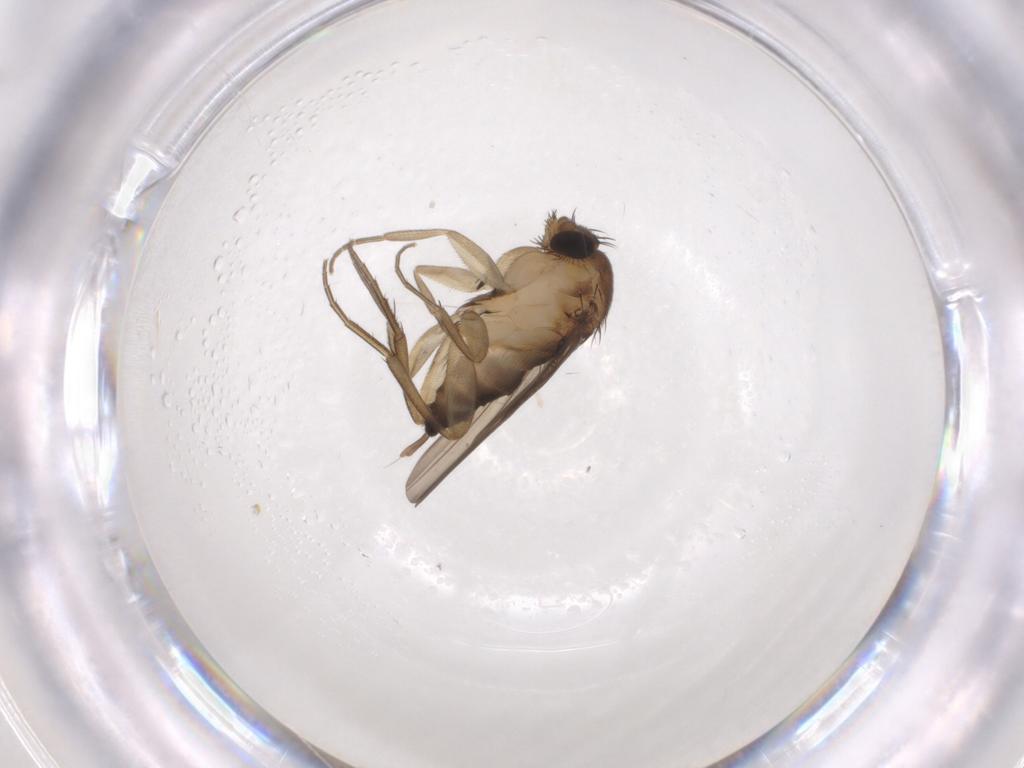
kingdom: Animalia
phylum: Arthropoda
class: Insecta
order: Diptera
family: Phoridae
